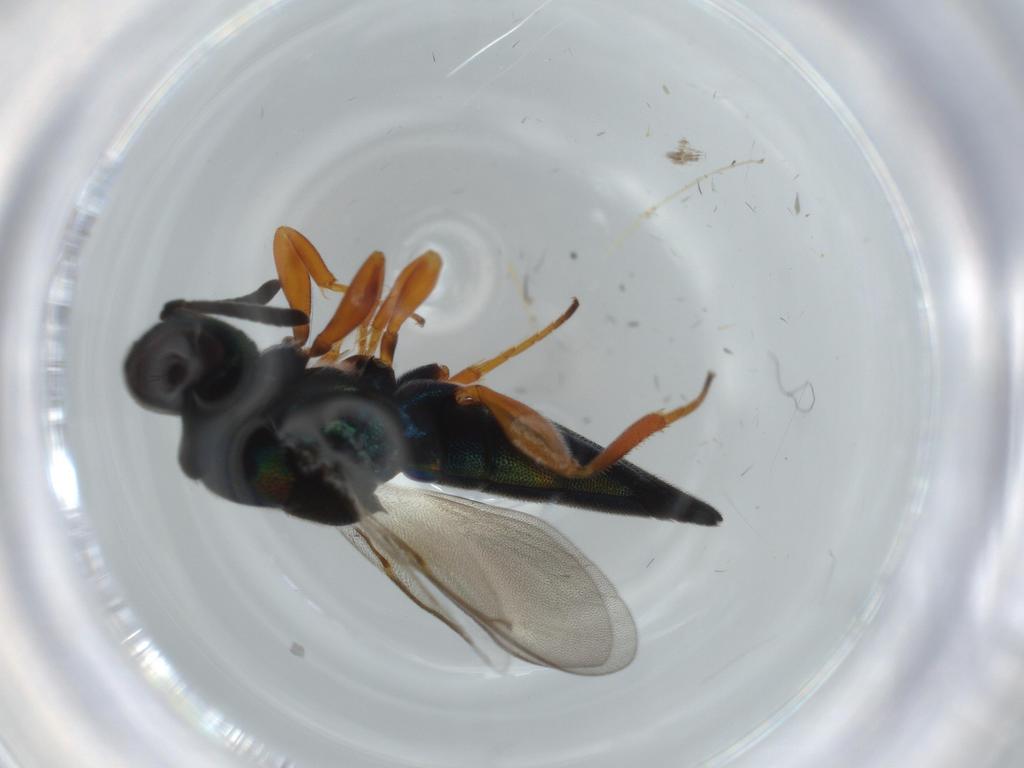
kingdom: Animalia
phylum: Arthropoda
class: Insecta
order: Hymenoptera
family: Lyciscidae
